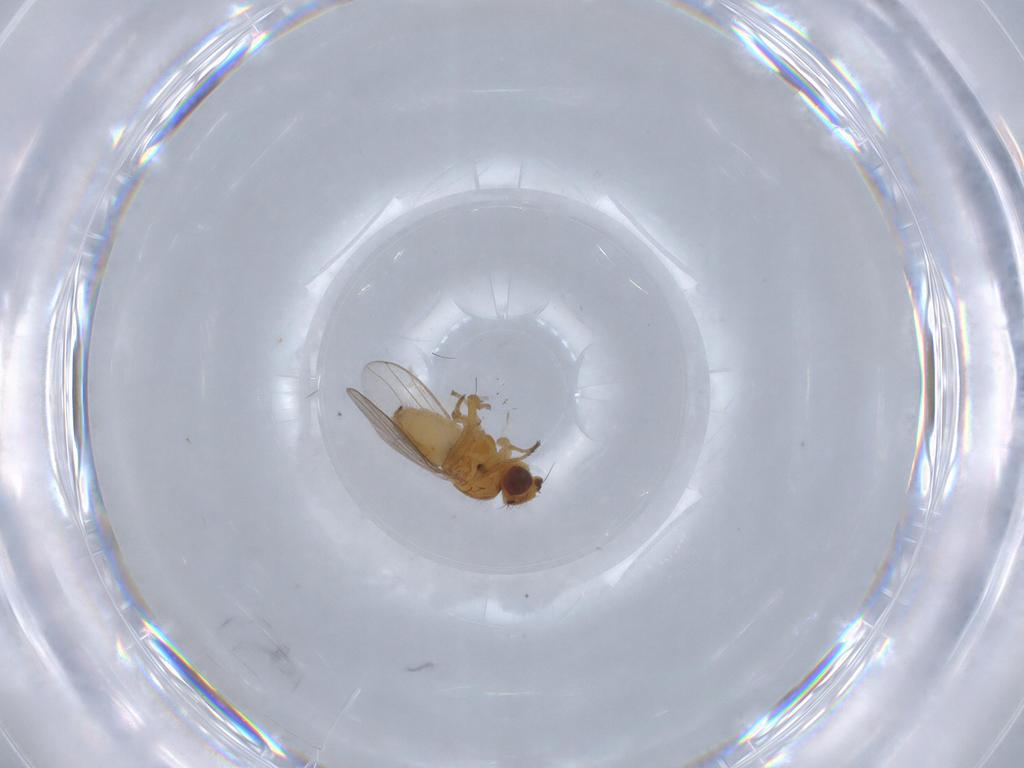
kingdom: Animalia
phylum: Arthropoda
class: Insecta
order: Diptera
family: Chloropidae
